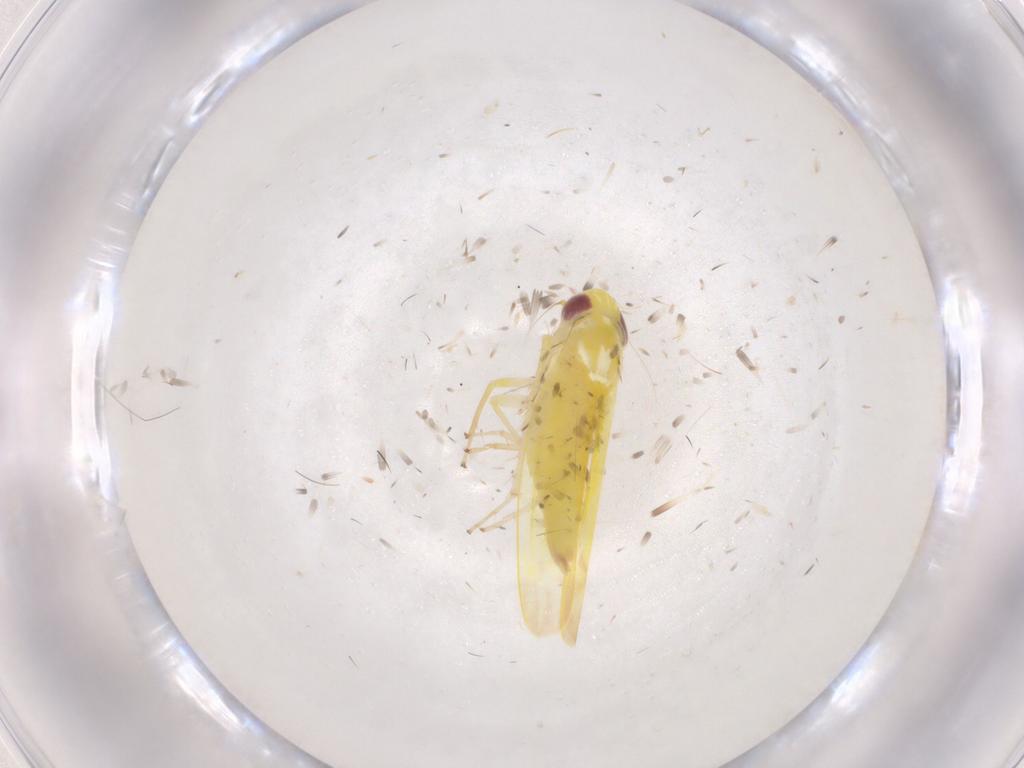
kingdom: Animalia
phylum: Arthropoda
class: Insecta
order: Hemiptera
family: Cicadellidae
